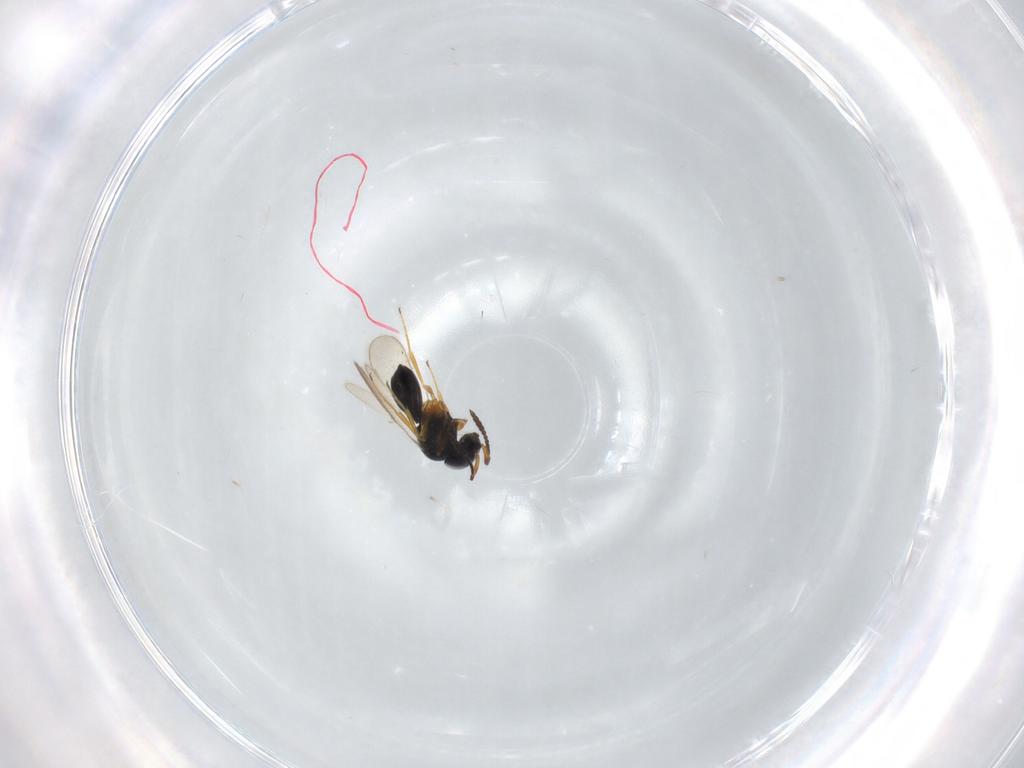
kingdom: Animalia
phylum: Arthropoda
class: Insecta
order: Hymenoptera
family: Scelionidae
